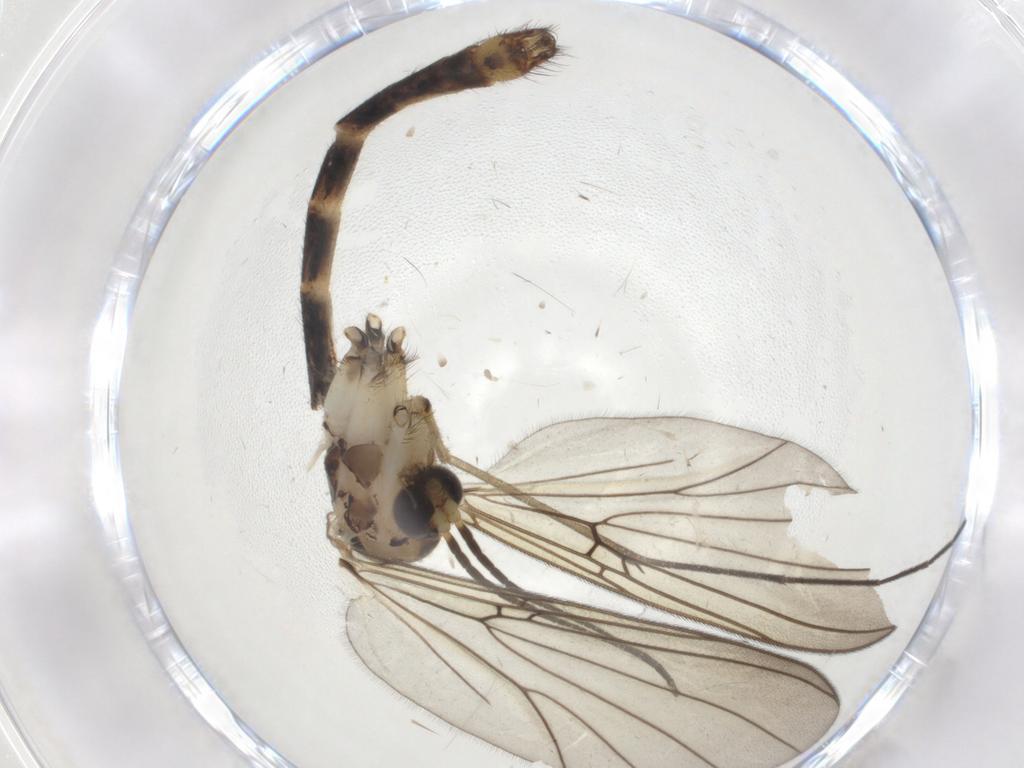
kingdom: Animalia
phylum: Arthropoda
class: Insecta
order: Diptera
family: Mycetophilidae
